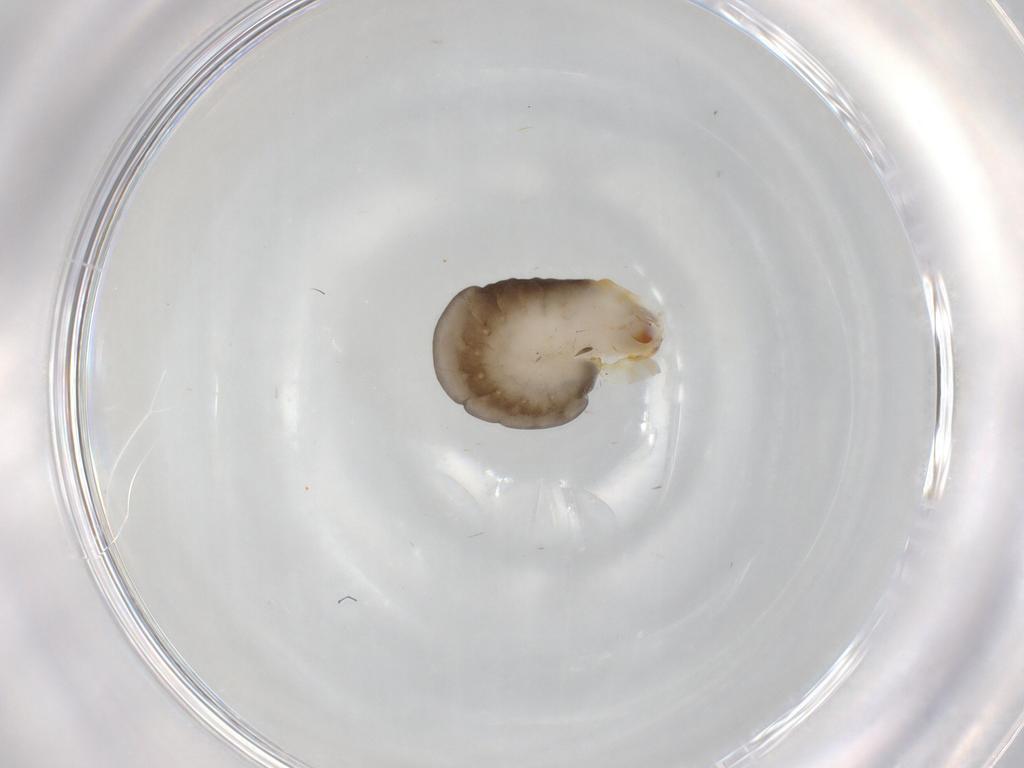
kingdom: Animalia
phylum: Arthropoda
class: Insecta
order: Hymenoptera
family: Dryinidae
